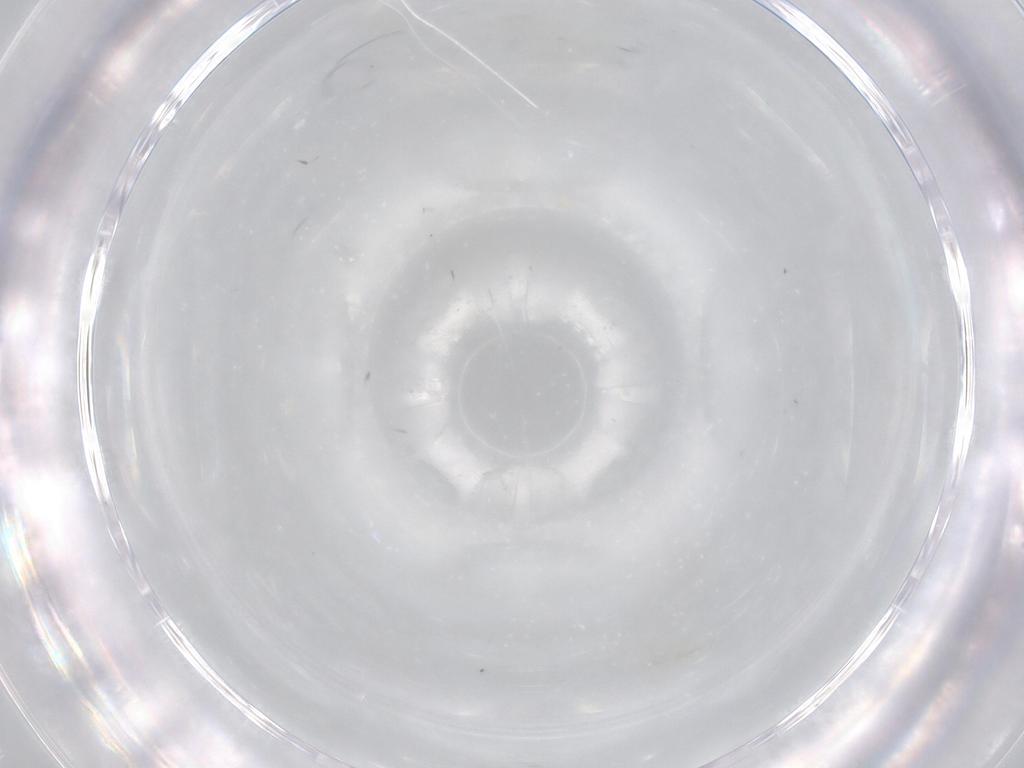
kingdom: Animalia
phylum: Arthropoda
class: Insecta
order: Diptera
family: Cecidomyiidae
